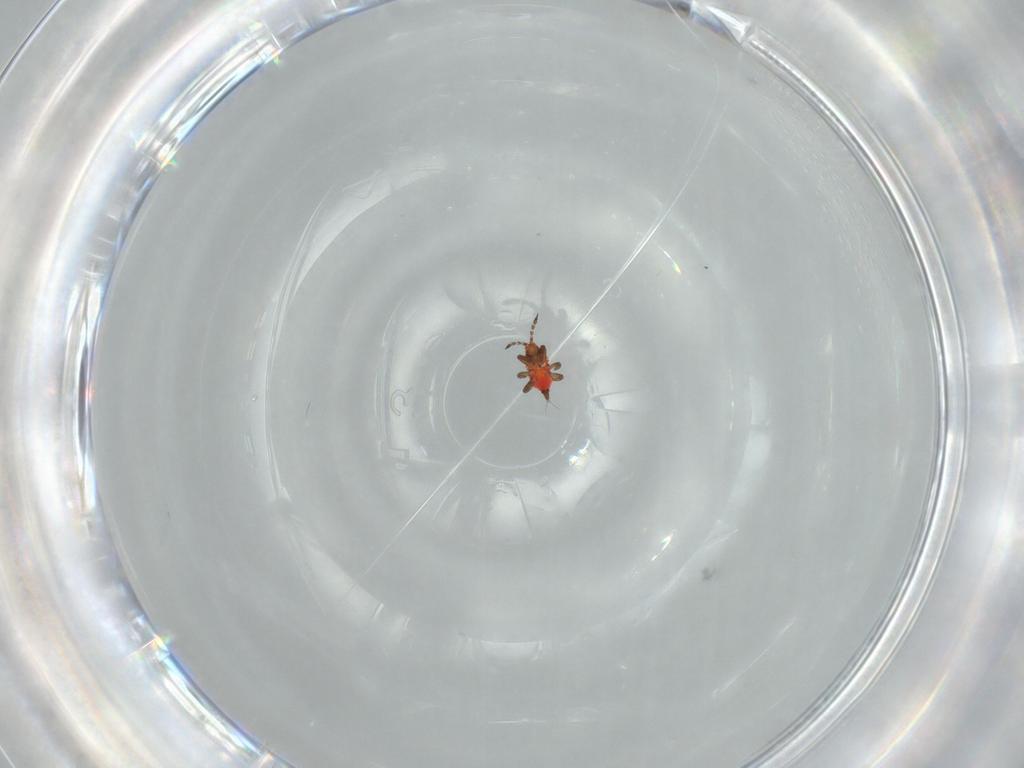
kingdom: Animalia
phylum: Arthropoda
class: Insecta
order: Thysanoptera
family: Phlaeothripidae
